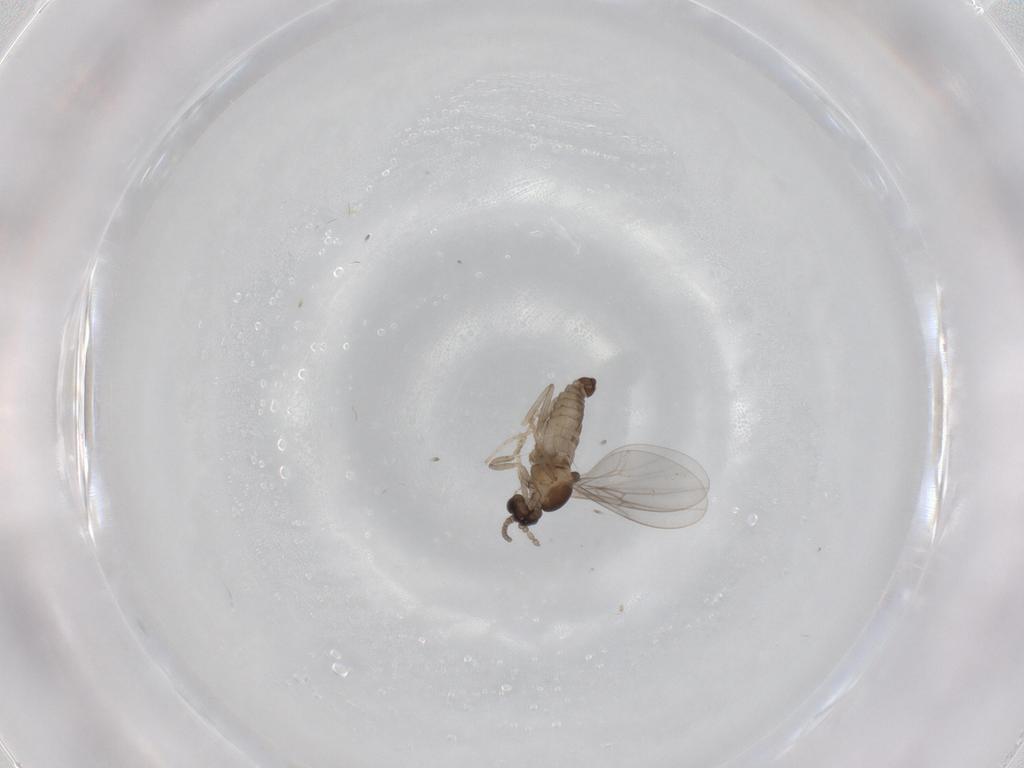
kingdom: Animalia
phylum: Arthropoda
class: Insecta
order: Diptera
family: Cecidomyiidae
